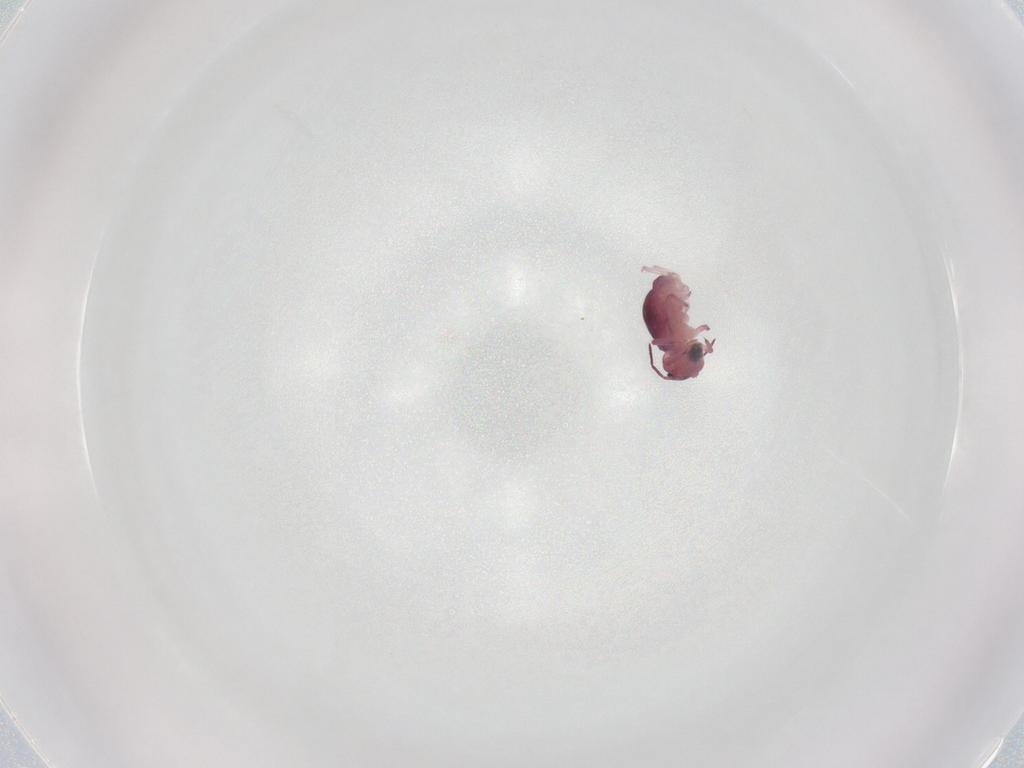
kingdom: Animalia
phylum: Arthropoda
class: Collembola
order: Symphypleona
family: Sminthurididae
